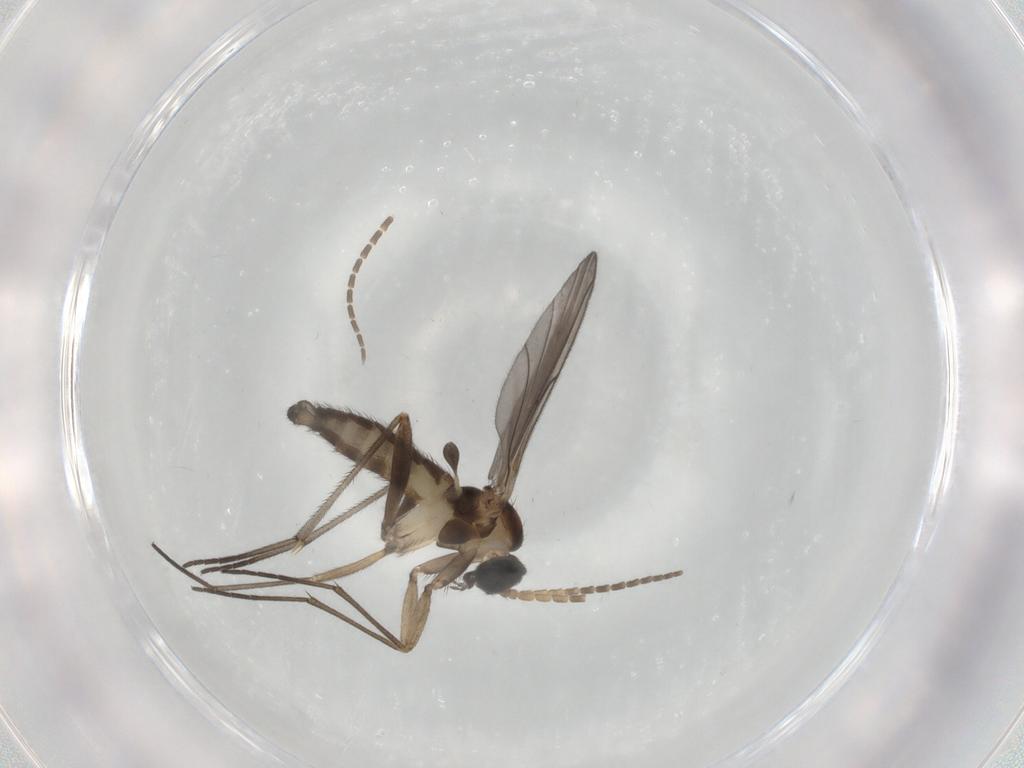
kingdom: Animalia
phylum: Arthropoda
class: Insecta
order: Diptera
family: Sciaridae
